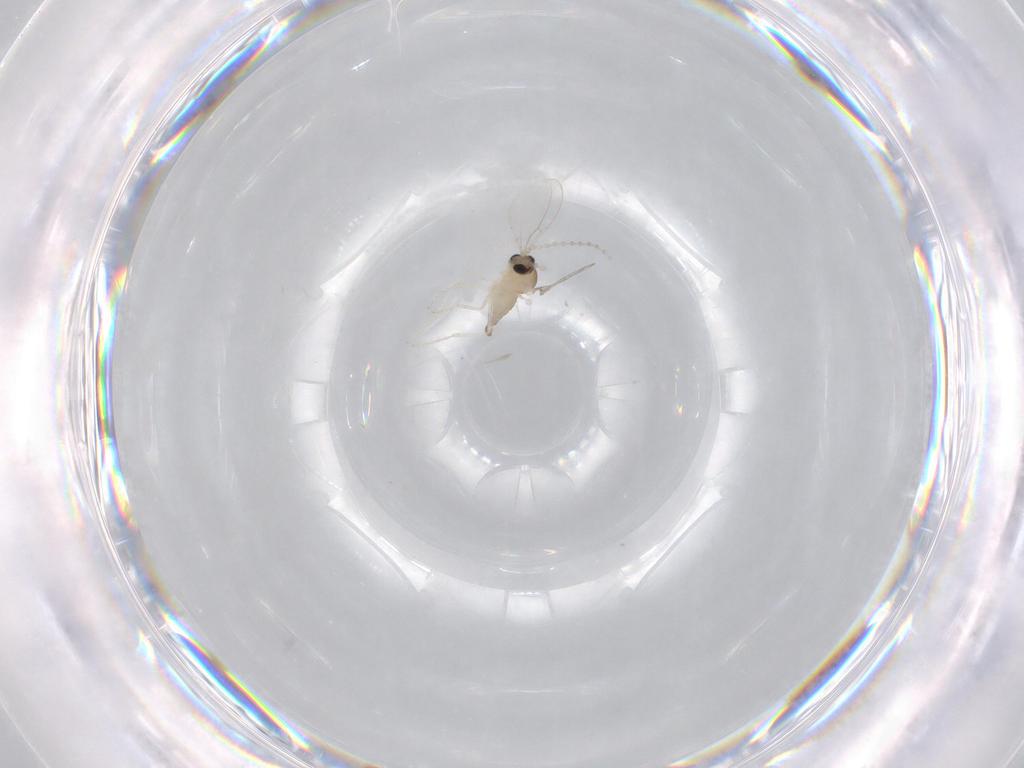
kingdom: Animalia
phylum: Arthropoda
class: Insecta
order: Diptera
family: Cecidomyiidae
